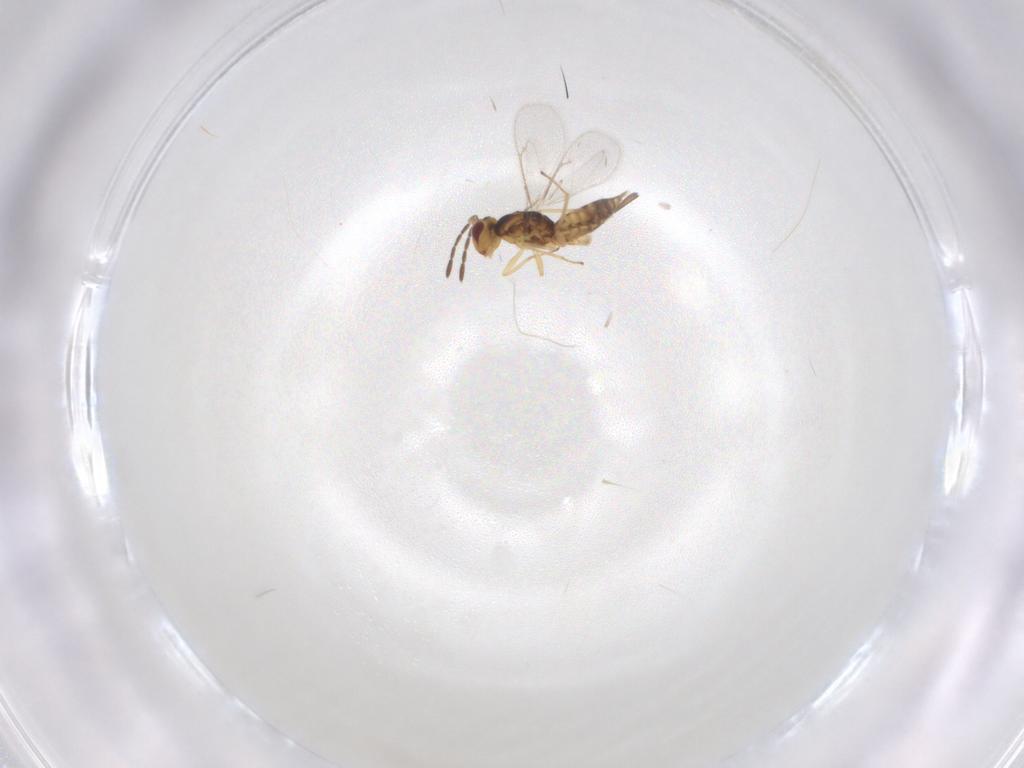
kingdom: Animalia
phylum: Arthropoda
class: Insecta
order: Hymenoptera
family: Eulophidae
